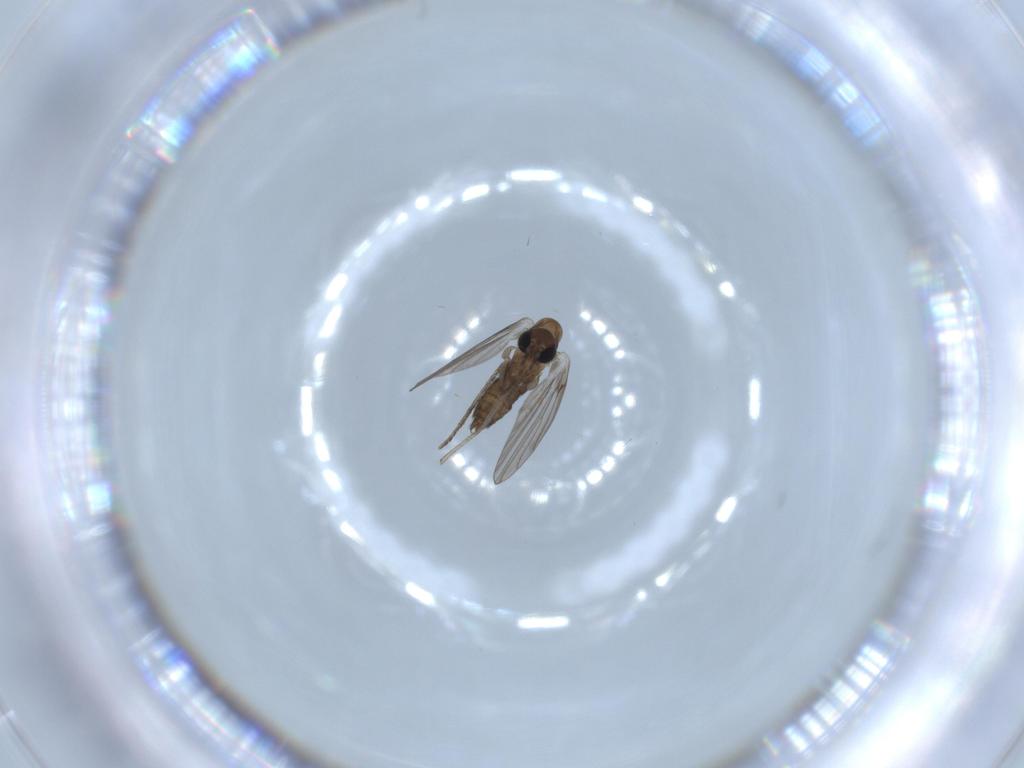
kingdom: Animalia
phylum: Arthropoda
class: Insecta
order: Diptera
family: Psychodidae
